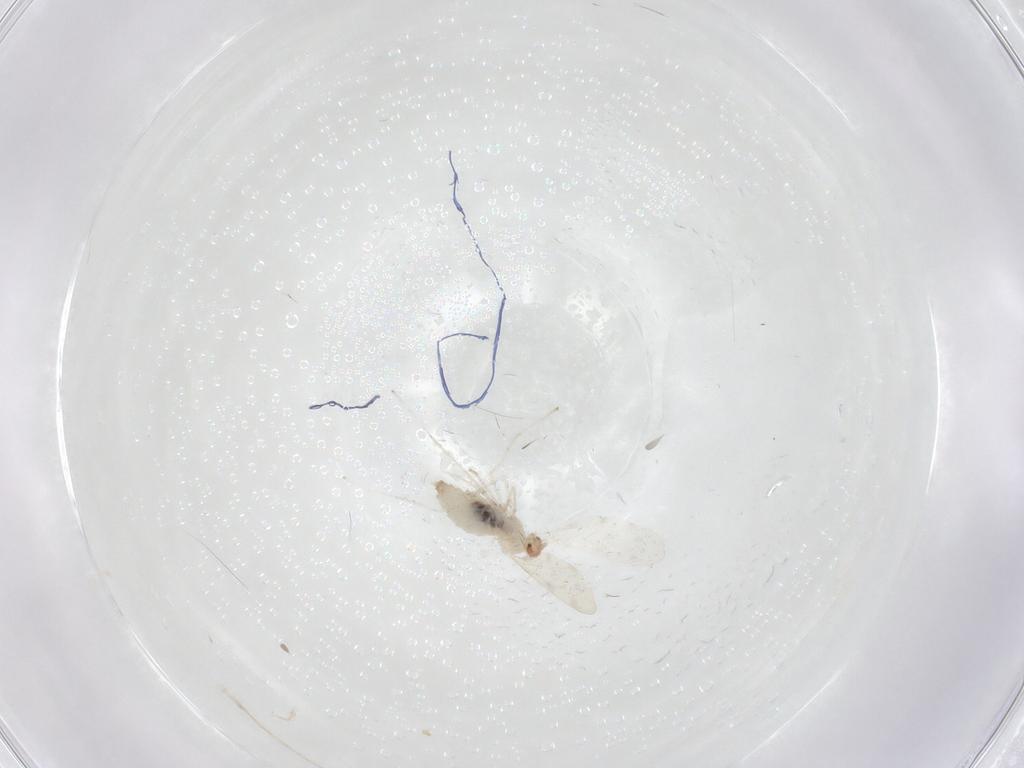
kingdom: Animalia
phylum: Arthropoda
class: Insecta
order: Diptera
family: Cecidomyiidae
